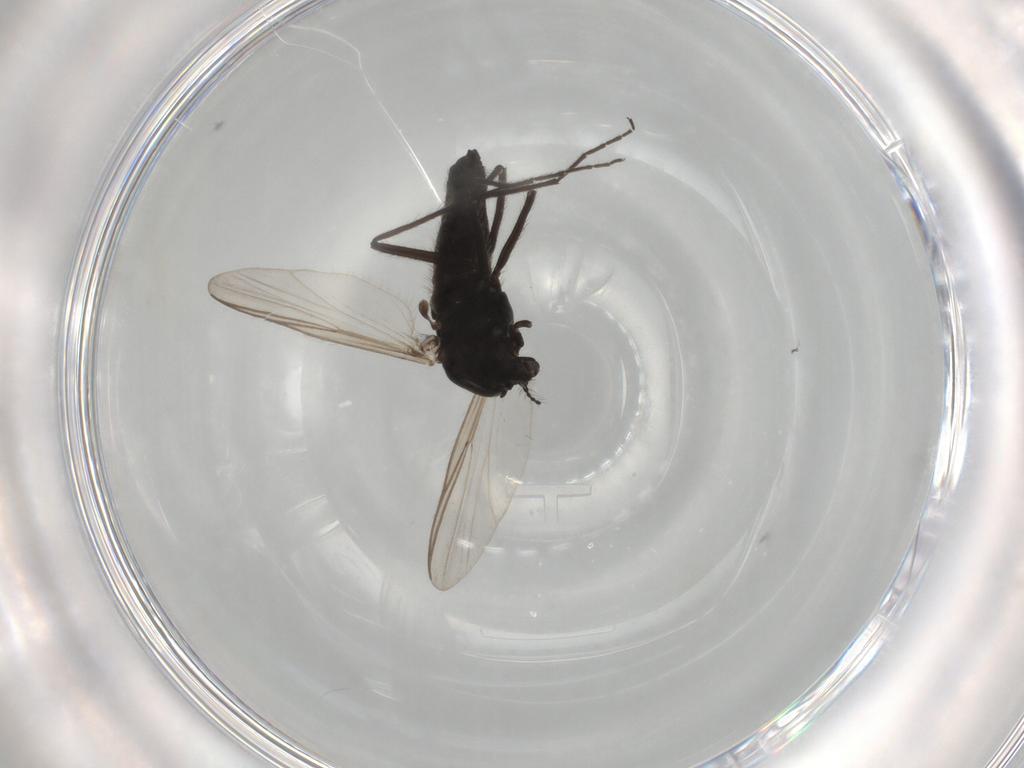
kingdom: Animalia
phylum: Arthropoda
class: Insecta
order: Diptera
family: Chironomidae
